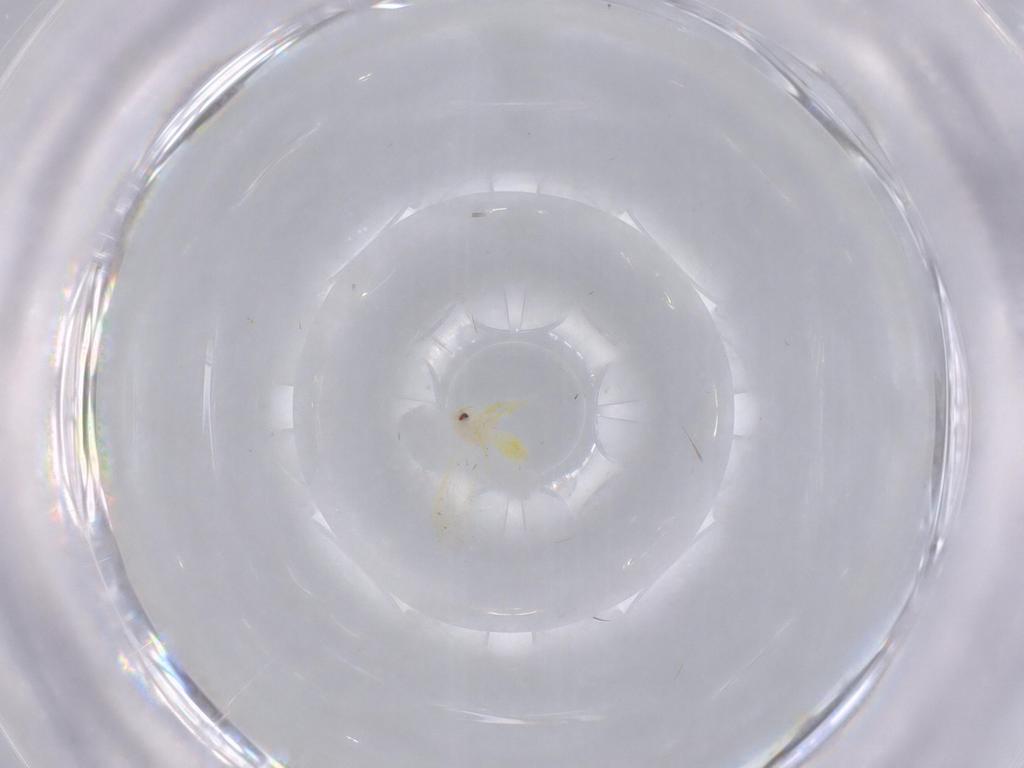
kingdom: Animalia
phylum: Arthropoda
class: Insecta
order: Hemiptera
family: Aleyrodidae
